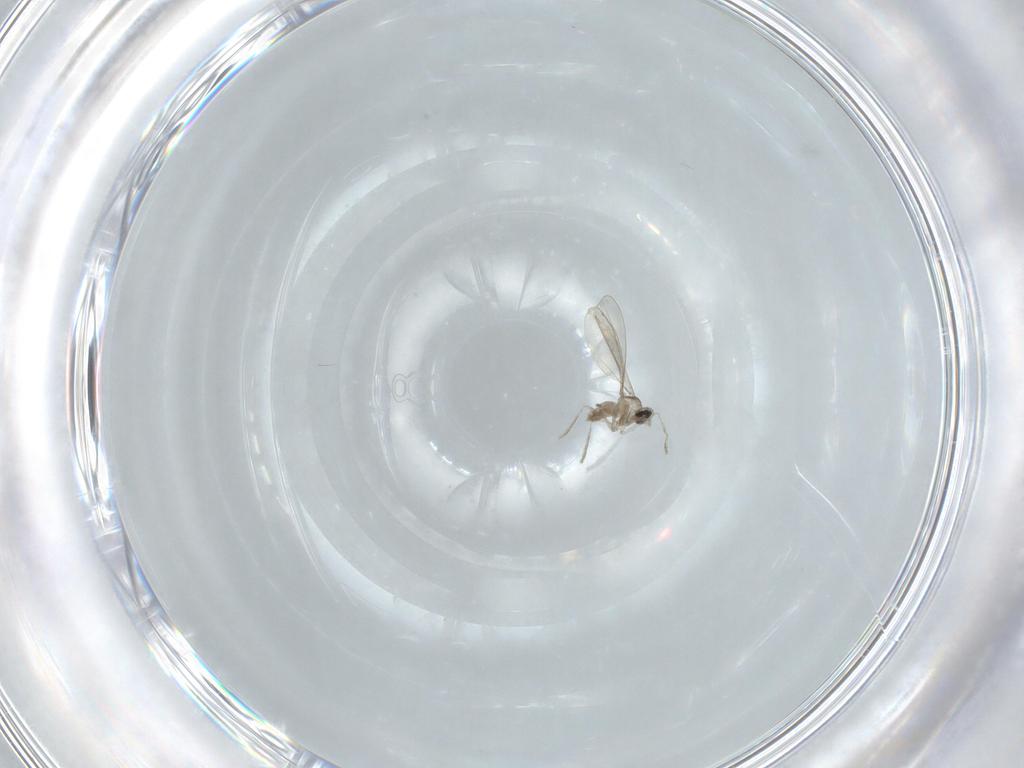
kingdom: Animalia
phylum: Arthropoda
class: Insecta
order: Diptera
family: Cecidomyiidae
